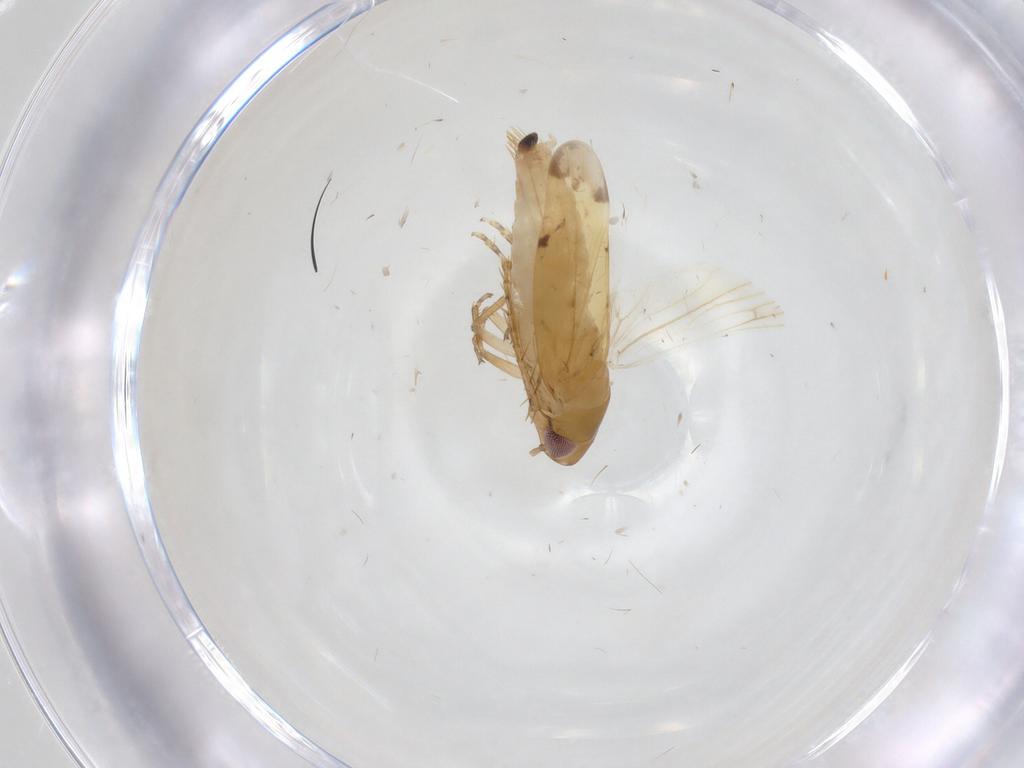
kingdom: Animalia
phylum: Arthropoda
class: Insecta
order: Hemiptera
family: Cicadellidae
